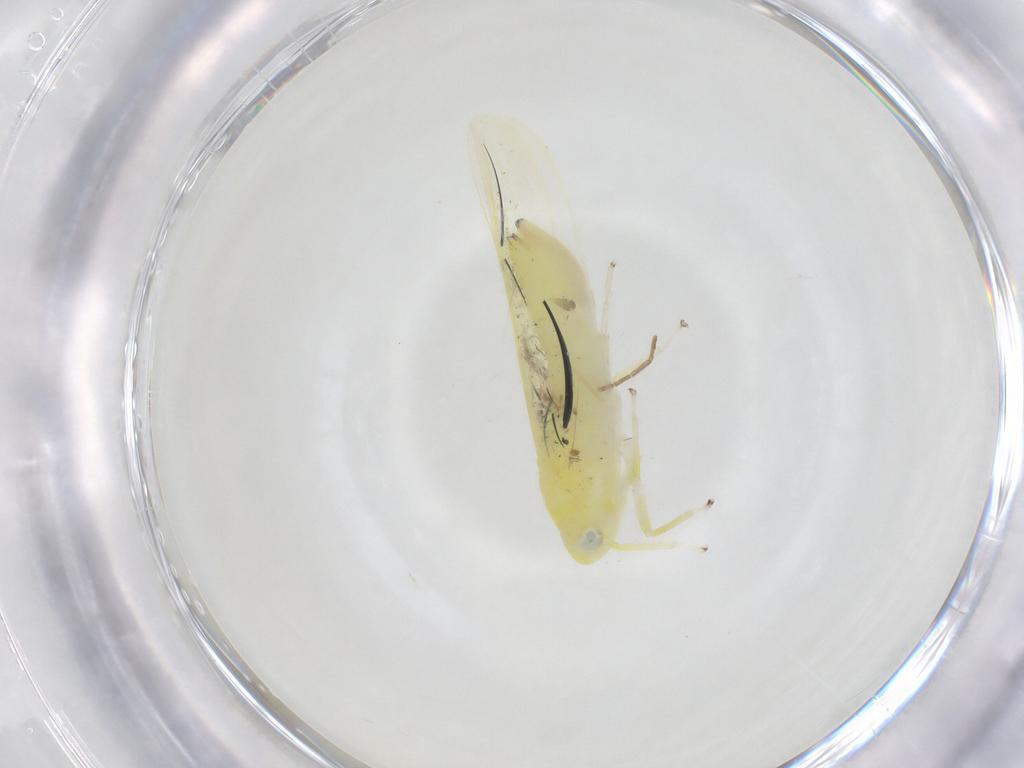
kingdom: Animalia
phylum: Arthropoda
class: Insecta
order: Hemiptera
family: Cicadellidae
